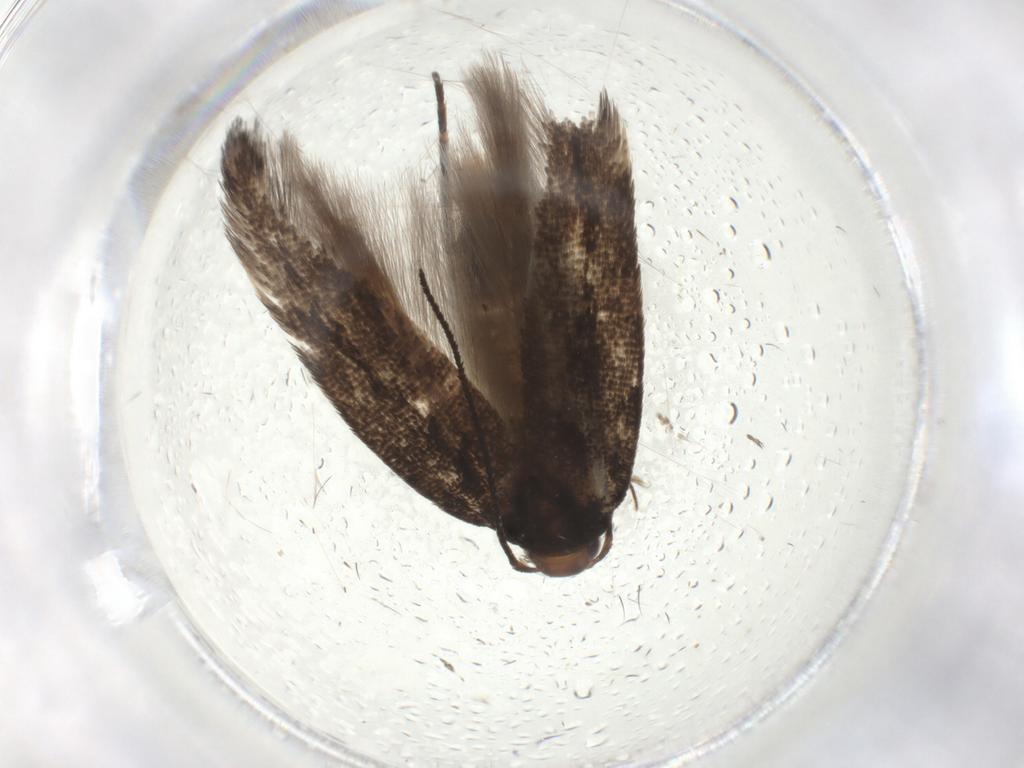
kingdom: Animalia
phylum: Arthropoda
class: Insecta
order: Lepidoptera
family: Gelechiidae
